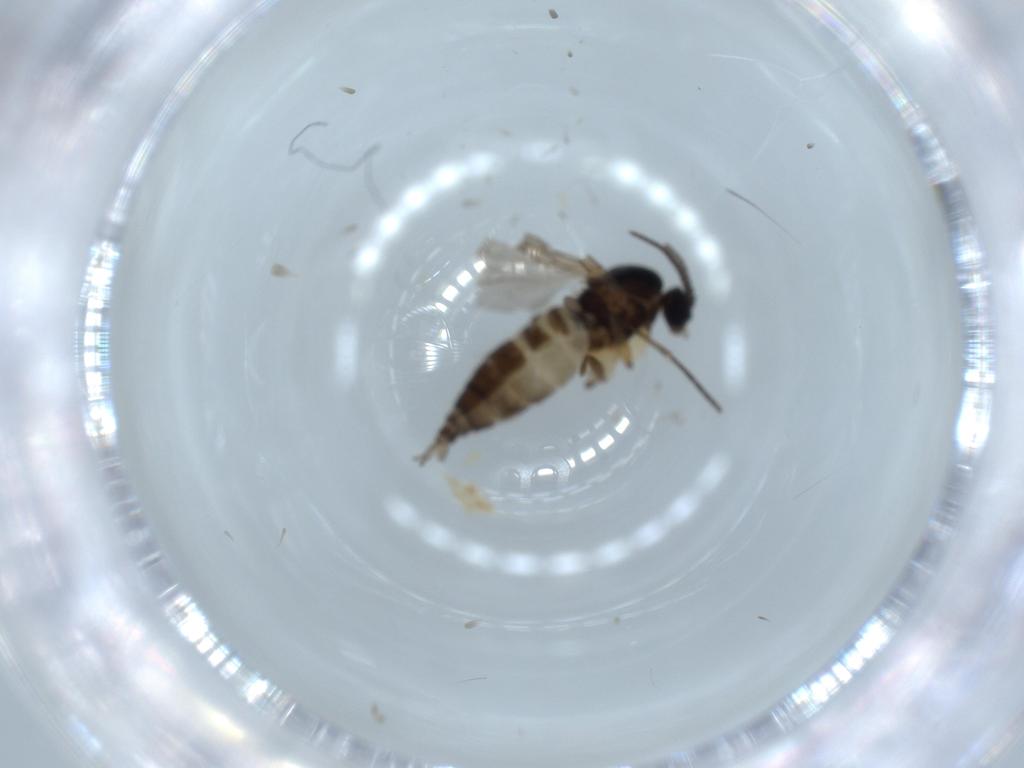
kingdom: Animalia
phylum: Arthropoda
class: Insecta
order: Diptera
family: Sciaridae
